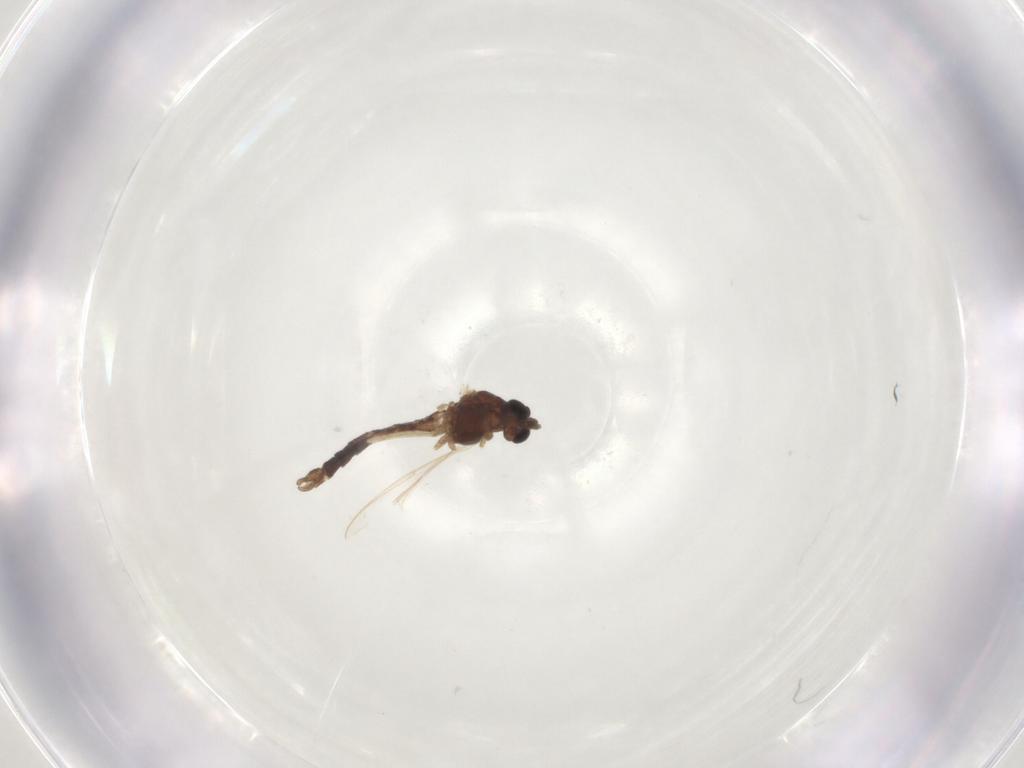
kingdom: Animalia
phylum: Arthropoda
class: Insecta
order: Diptera
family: Chironomidae
